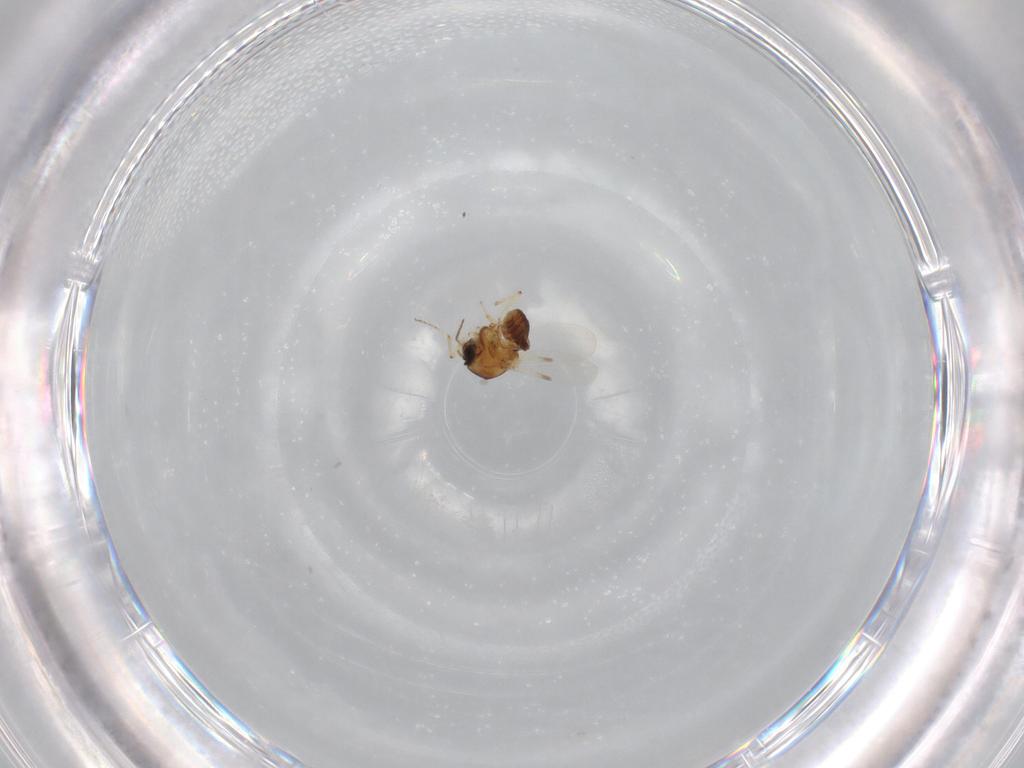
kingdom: Animalia
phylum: Arthropoda
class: Insecta
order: Diptera
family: Ceratopogonidae
